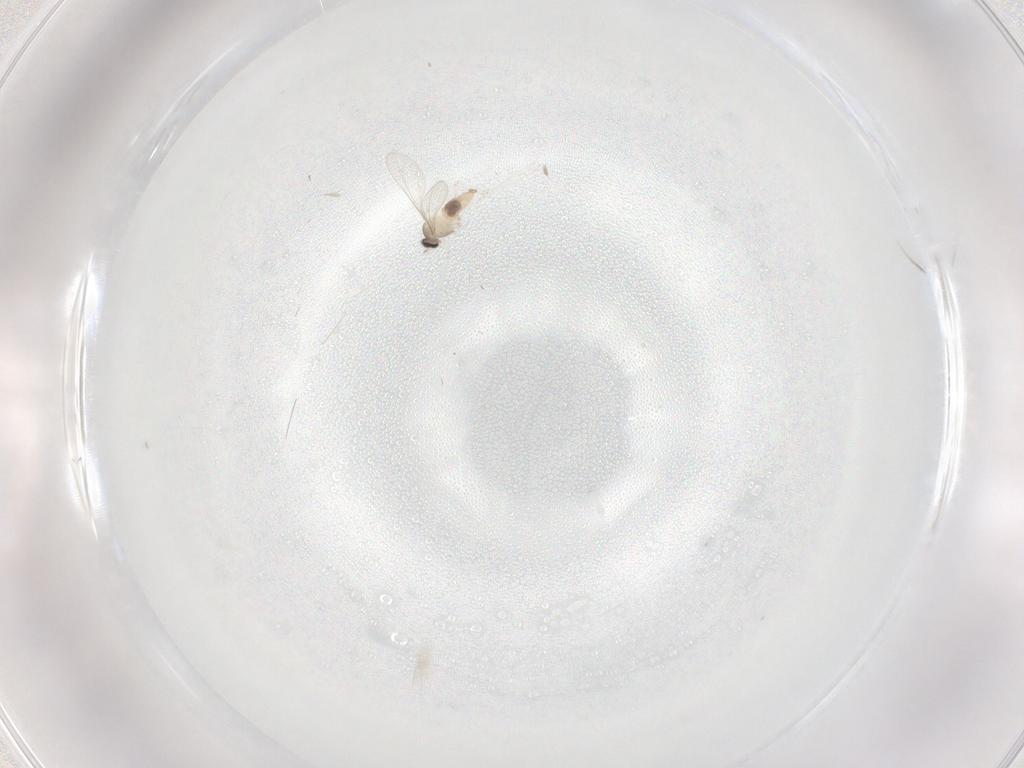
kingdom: Animalia
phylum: Arthropoda
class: Insecta
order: Diptera
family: Cecidomyiidae
